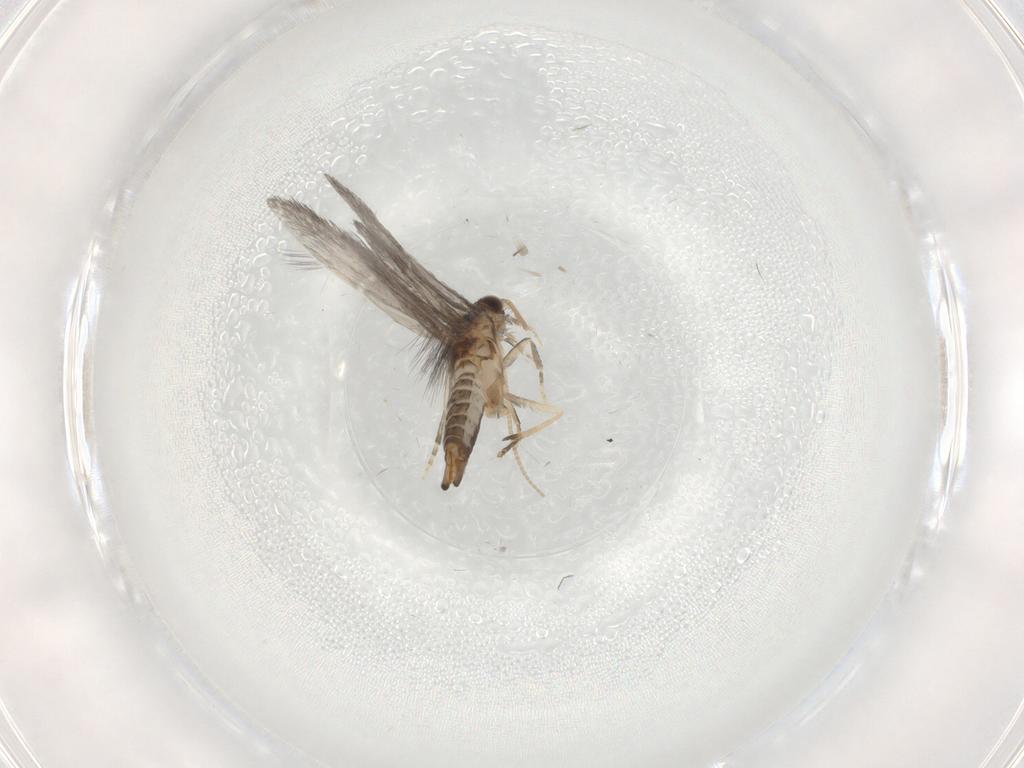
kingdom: Animalia
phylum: Arthropoda
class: Insecta
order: Trichoptera
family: Hydroptilidae
